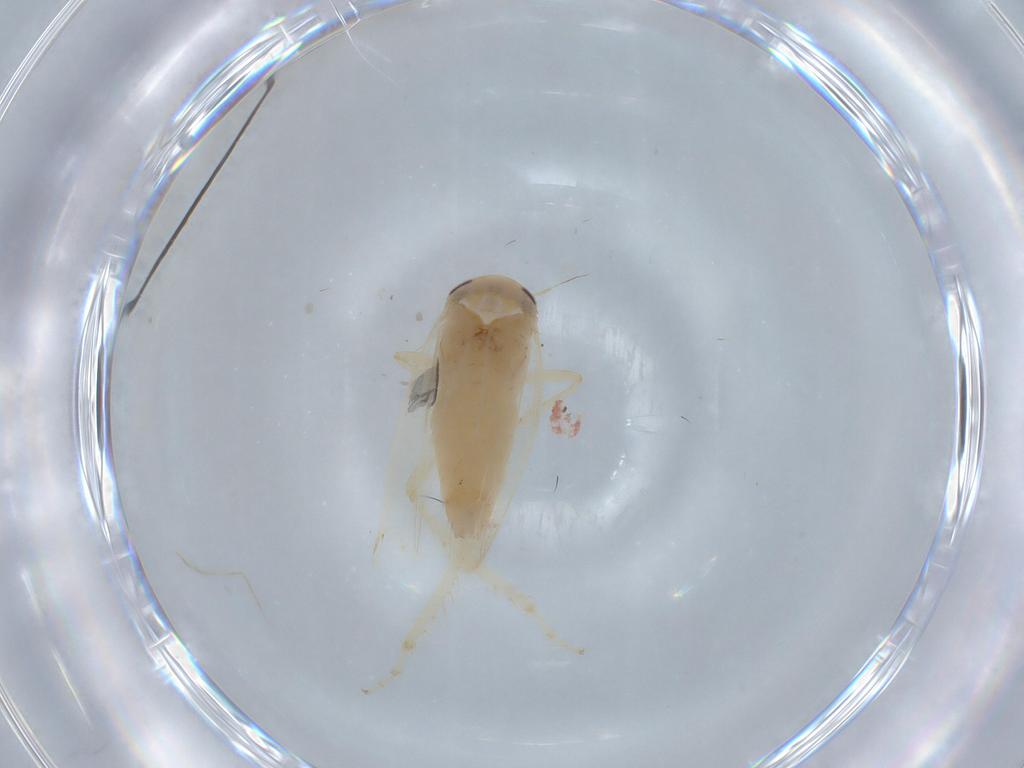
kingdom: Animalia
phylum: Arthropoda
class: Insecta
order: Hemiptera
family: Cicadellidae
